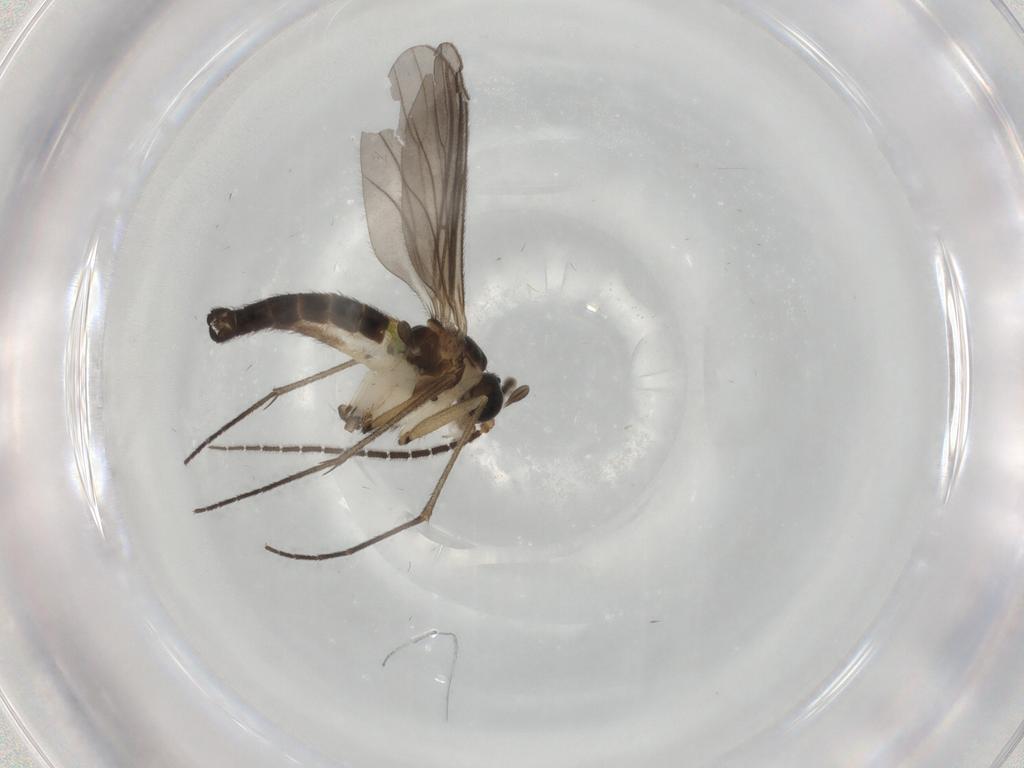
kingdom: Animalia
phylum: Arthropoda
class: Insecta
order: Diptera
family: Sciaridae
